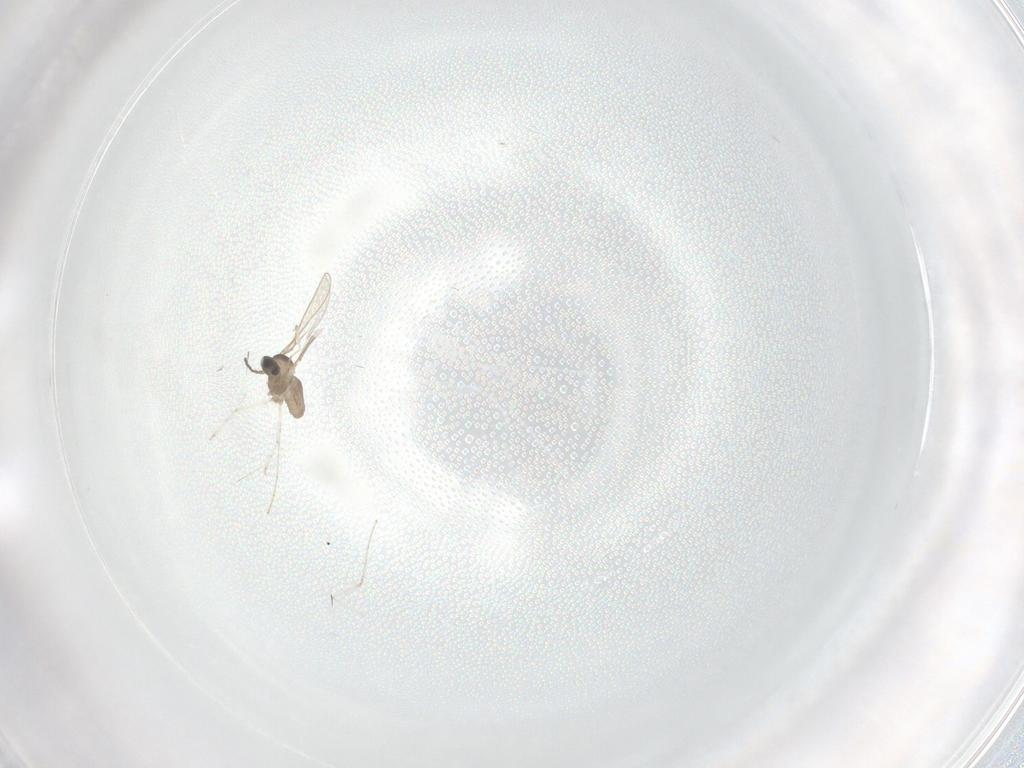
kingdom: Animalia
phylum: Arthropoda
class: Insecta
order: Diptera
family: Cecidomyiidae
